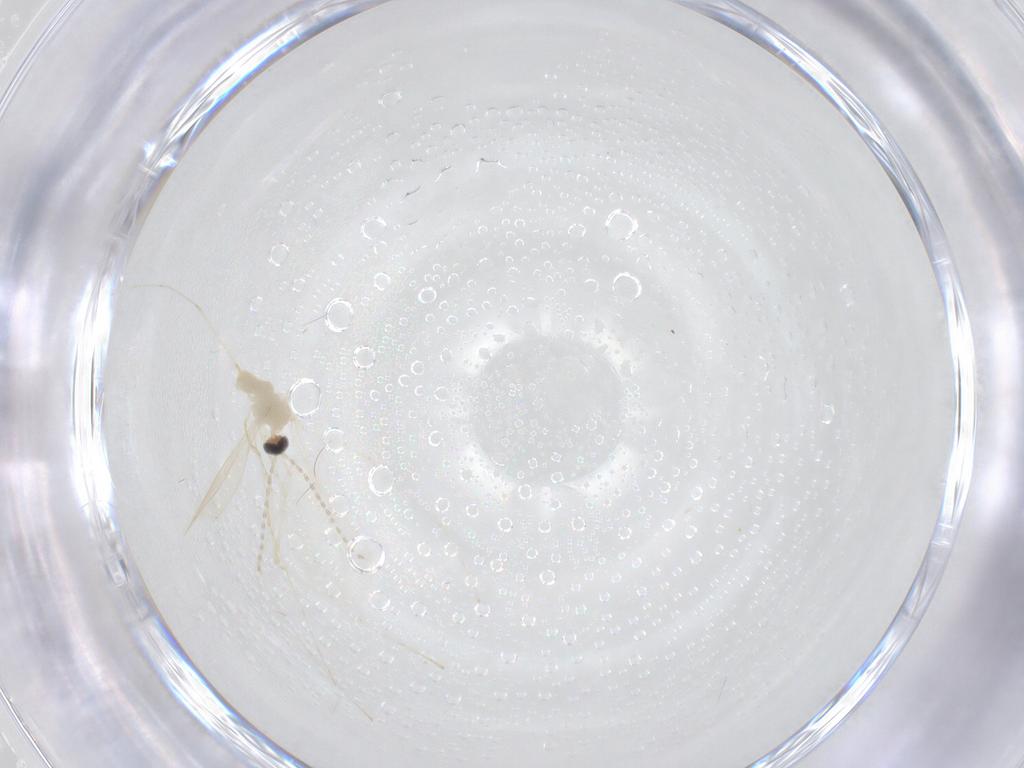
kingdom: Animalia
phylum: Arthropoda
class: Insecta
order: Diptera
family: Cecidomyiidae
